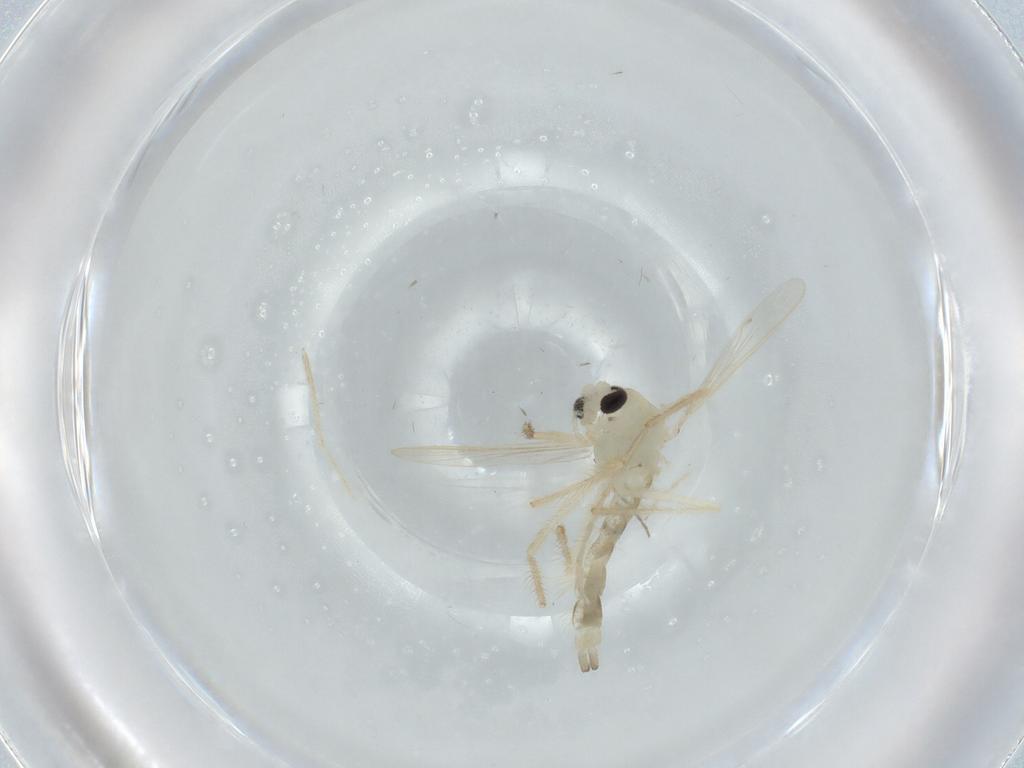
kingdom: Animalia
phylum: Arthropoda
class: Insecta
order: Diptera
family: Chironomidae
